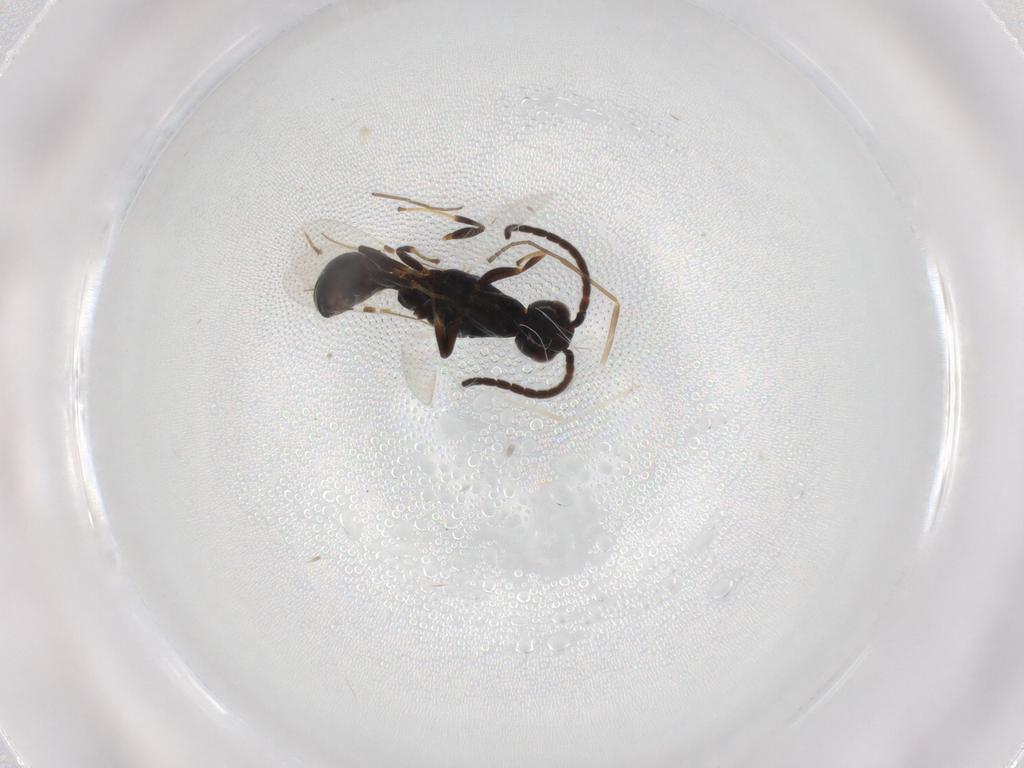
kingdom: Animalia
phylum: Arthropoda
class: Insecta
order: Hymenoptera
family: Bethylidae
